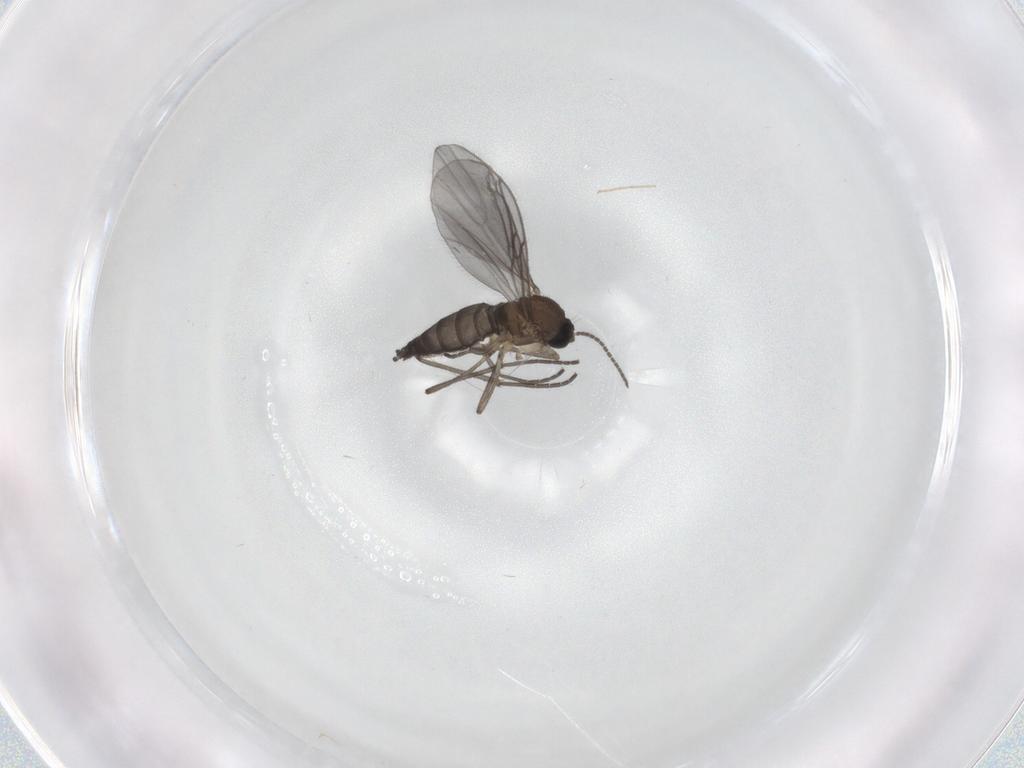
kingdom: Animalia
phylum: Arthropoda
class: Insecta
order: Diptera
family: Sciaridae
